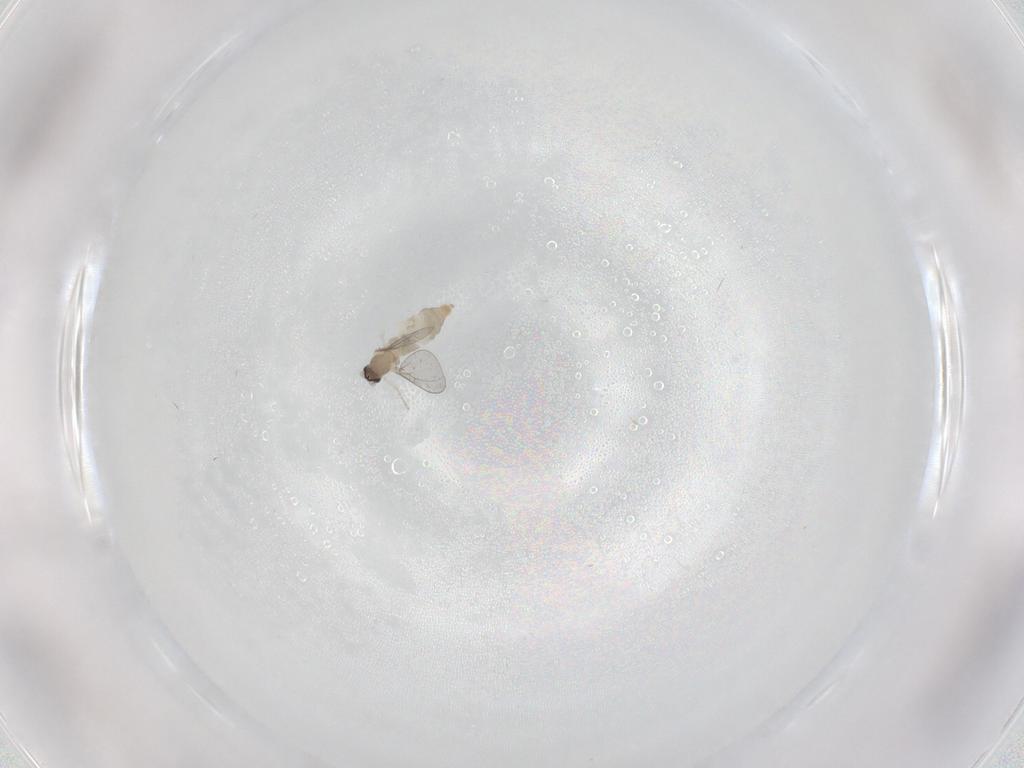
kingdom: Animalia
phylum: Arthropoda
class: Insecta
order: Diptera
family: Cecidomyiidae
